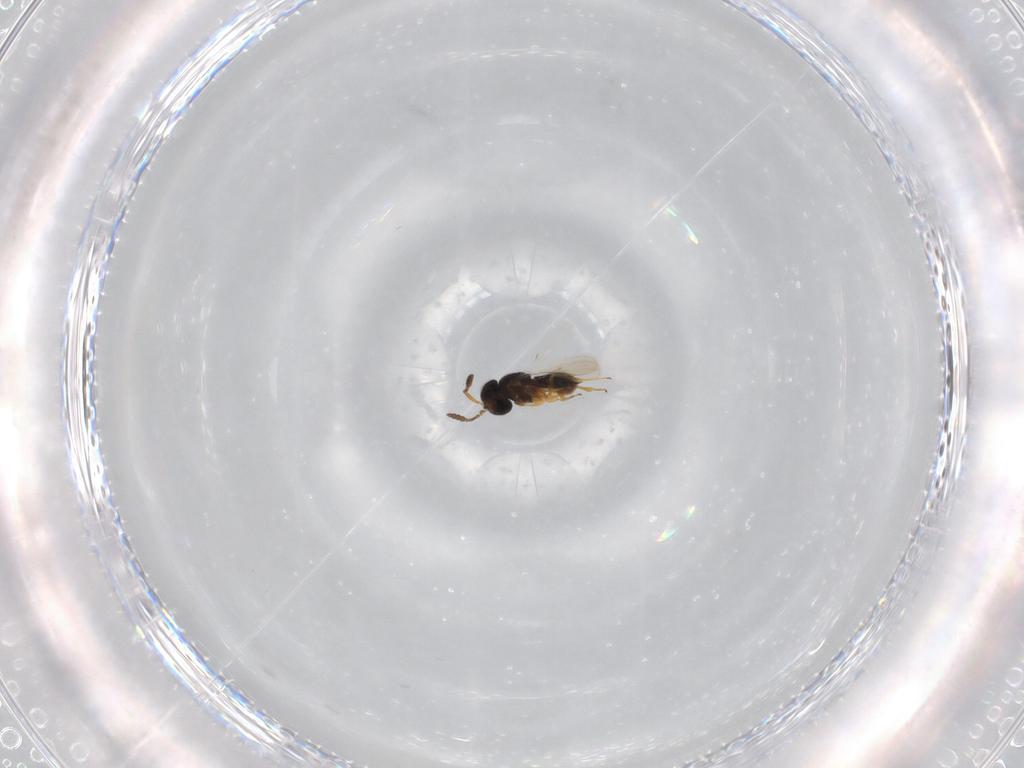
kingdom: Animalia
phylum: Arthropoda
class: Insecta
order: Hymenoptera
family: Scelionidae
